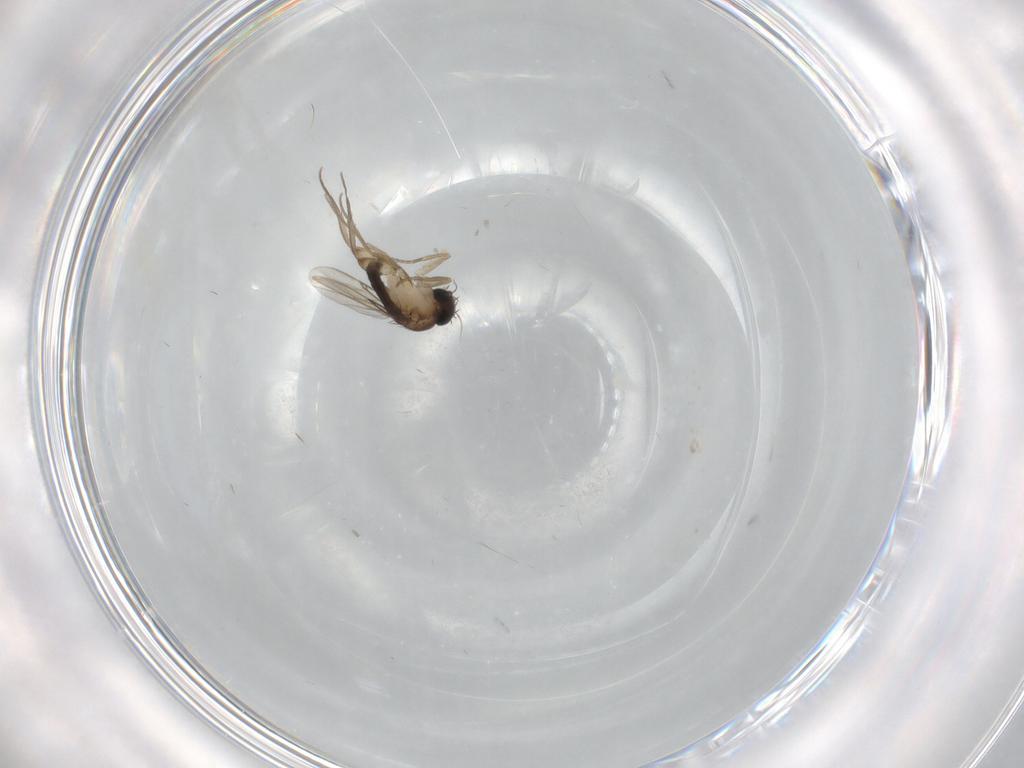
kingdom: Animalia
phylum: Arthropoda
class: Insecta
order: Diptera
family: Phoridae
